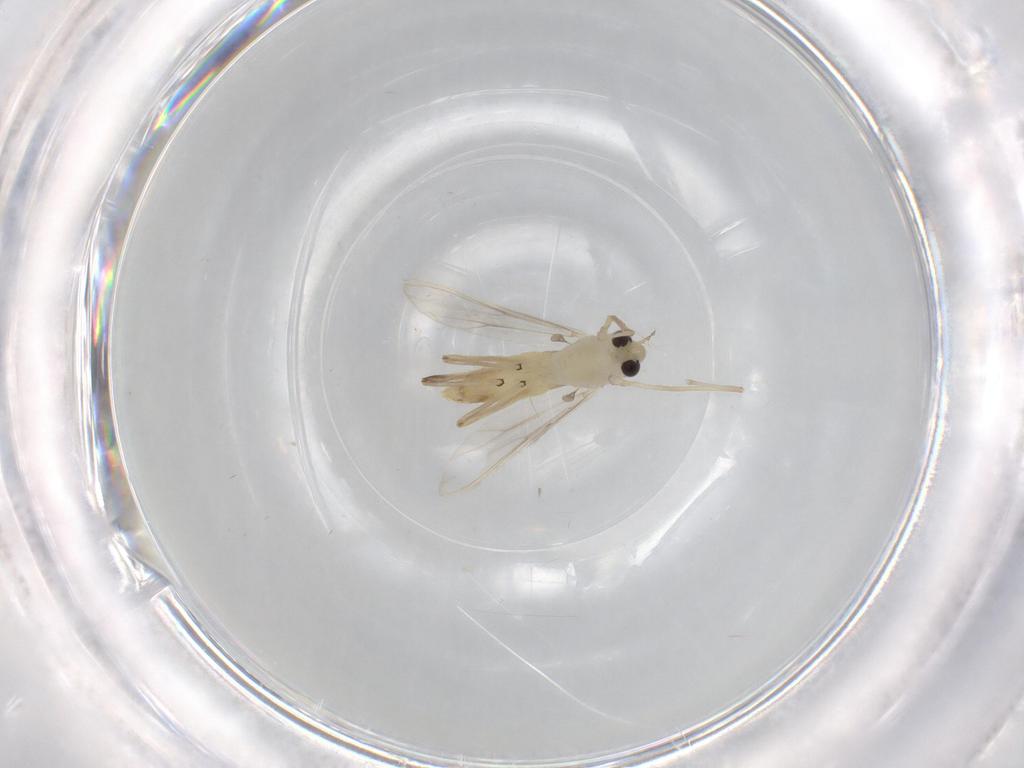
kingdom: Animalia
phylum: Arthropoda
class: Insecta
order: Diptera
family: Chironomidae
